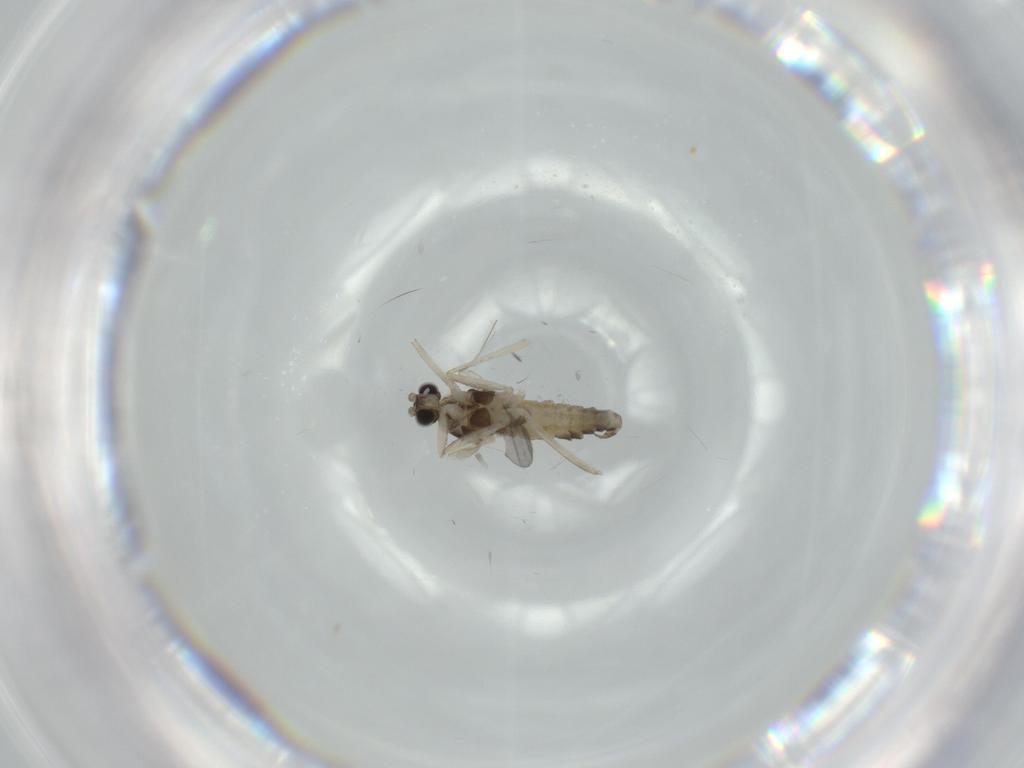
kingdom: Animalia
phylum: Arthropoda
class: Insecta
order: Diptera
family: Cecidomyiidae
